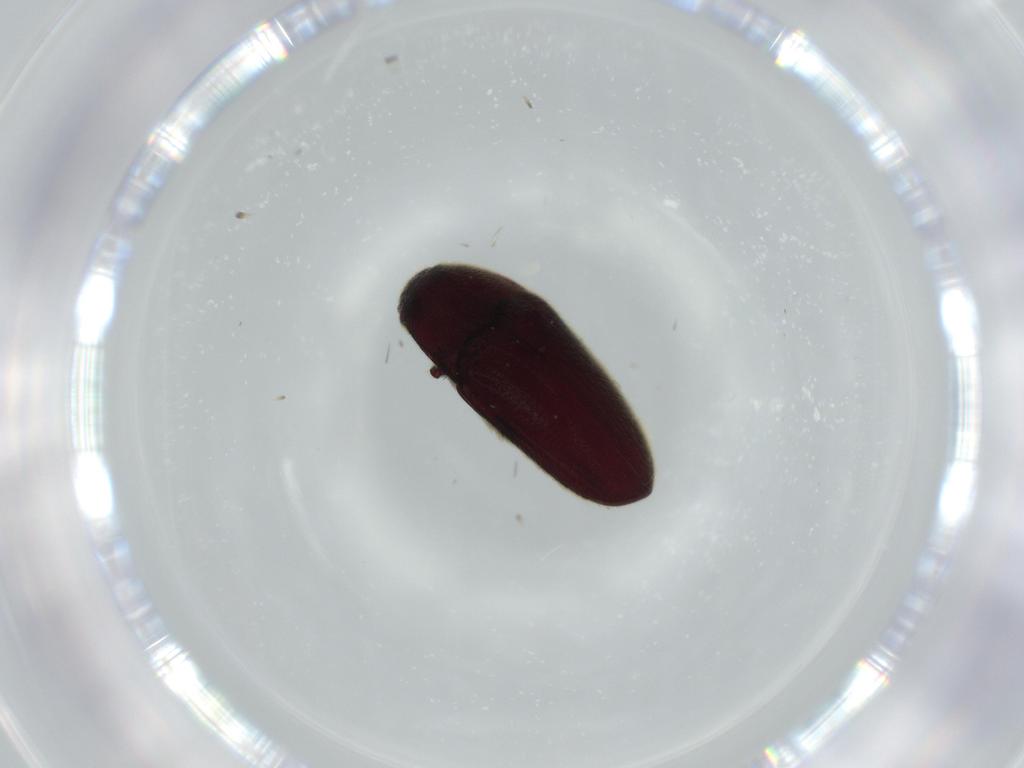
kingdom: Animalia
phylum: Arthropoda
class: Insecta
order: Coleoptera
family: Throscidae
